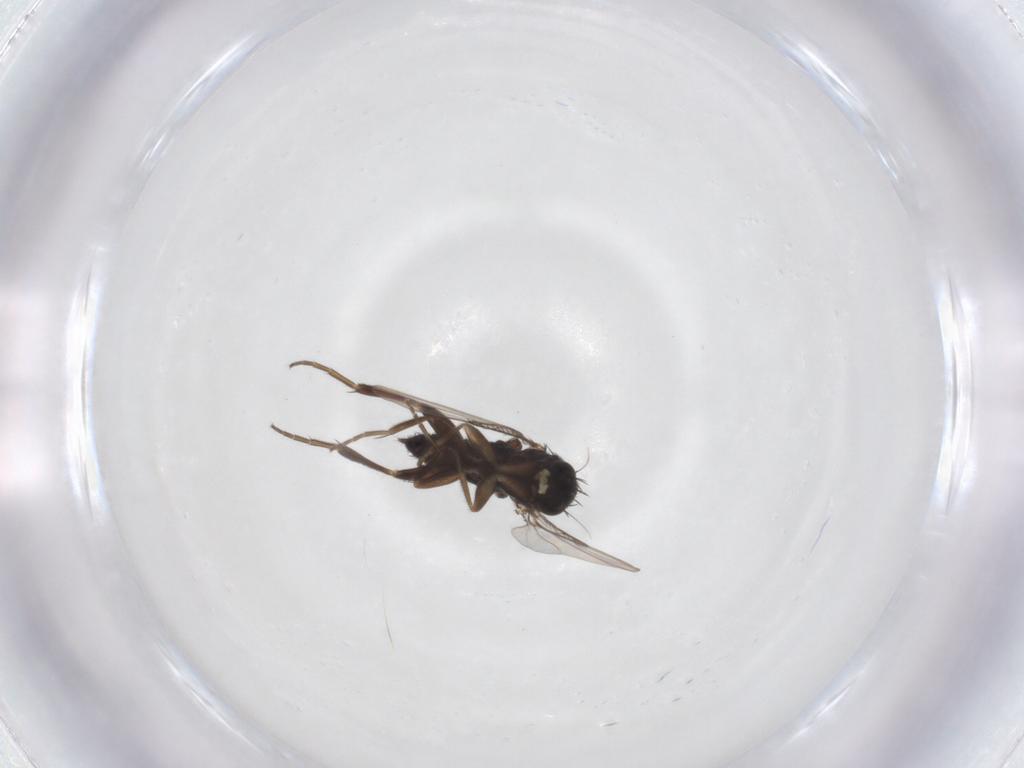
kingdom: Animalia
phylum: Arthropoda
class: Insecta
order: Diptera
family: Phoridae
